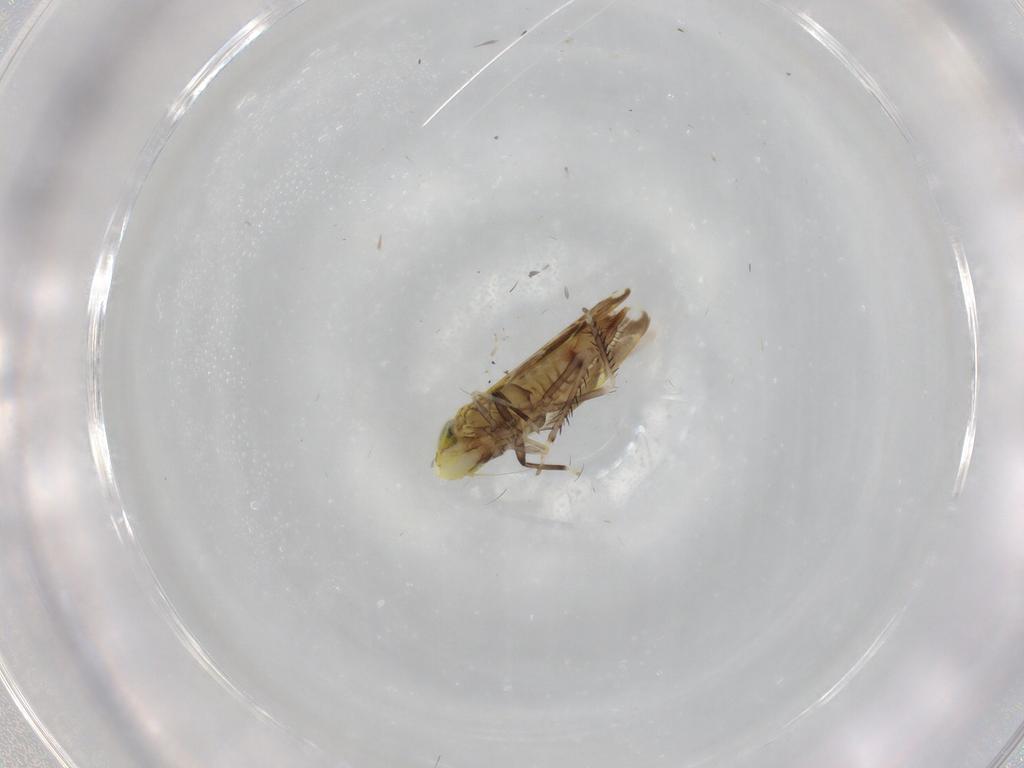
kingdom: Animalia
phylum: Arthropoda
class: Insecta
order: Hemiptera
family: Cicadellidae
